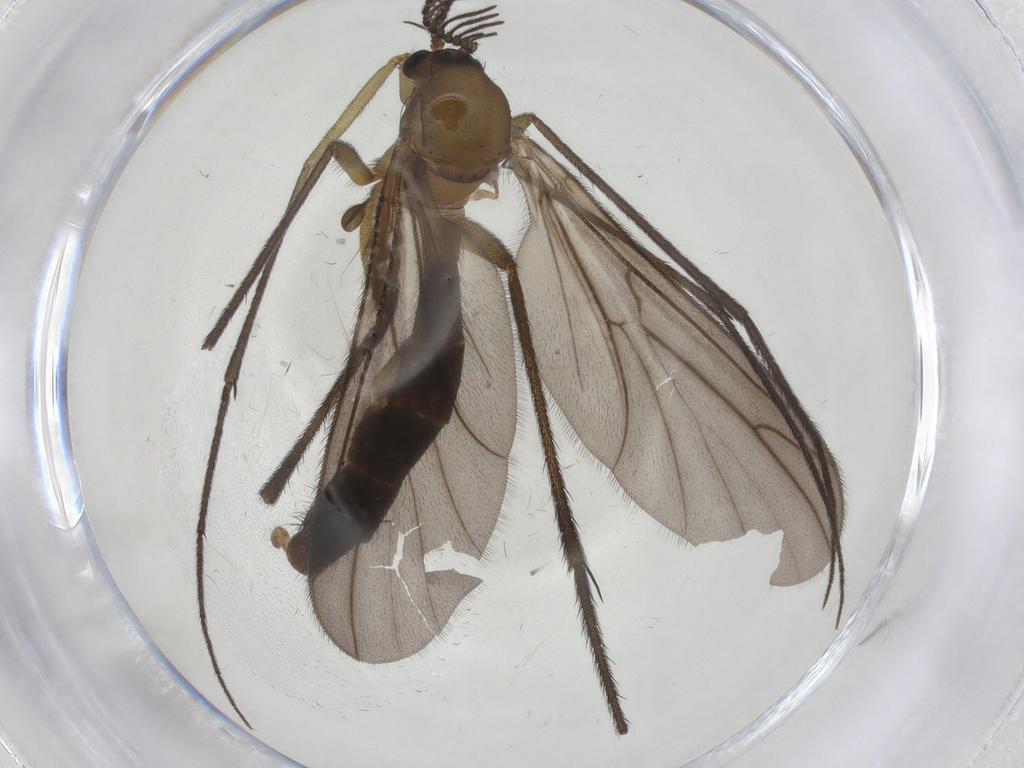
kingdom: Animalia
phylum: Arthropoda
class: Insecta
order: Diptera
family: Ditomyiidae
